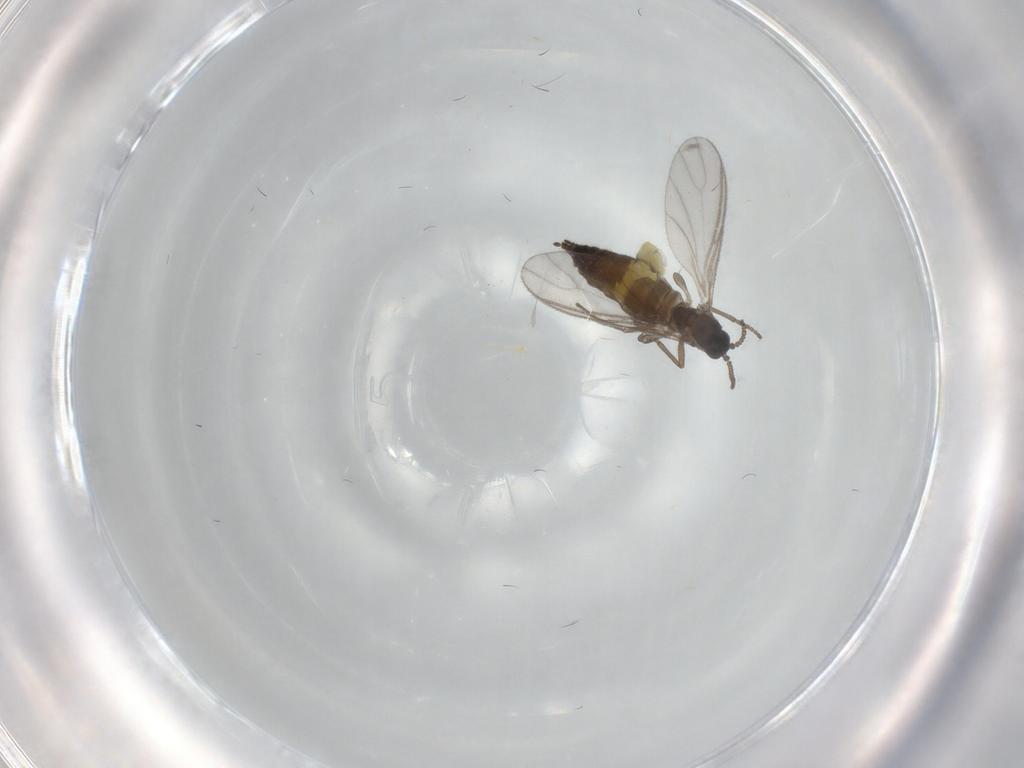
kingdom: Animalia
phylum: Arthropoda
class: Insecta
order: Diptera
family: Sciaridae
